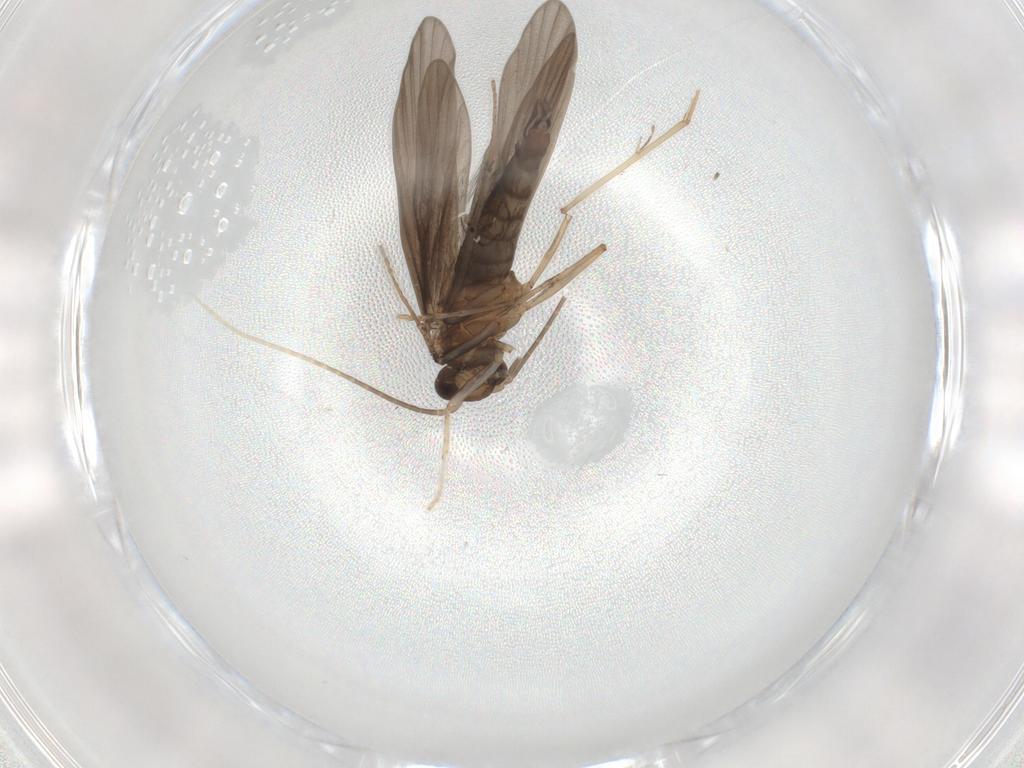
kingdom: Animalia
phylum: Arthropoda
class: Insecta
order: Trichoptera
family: Xiphocentronidae
